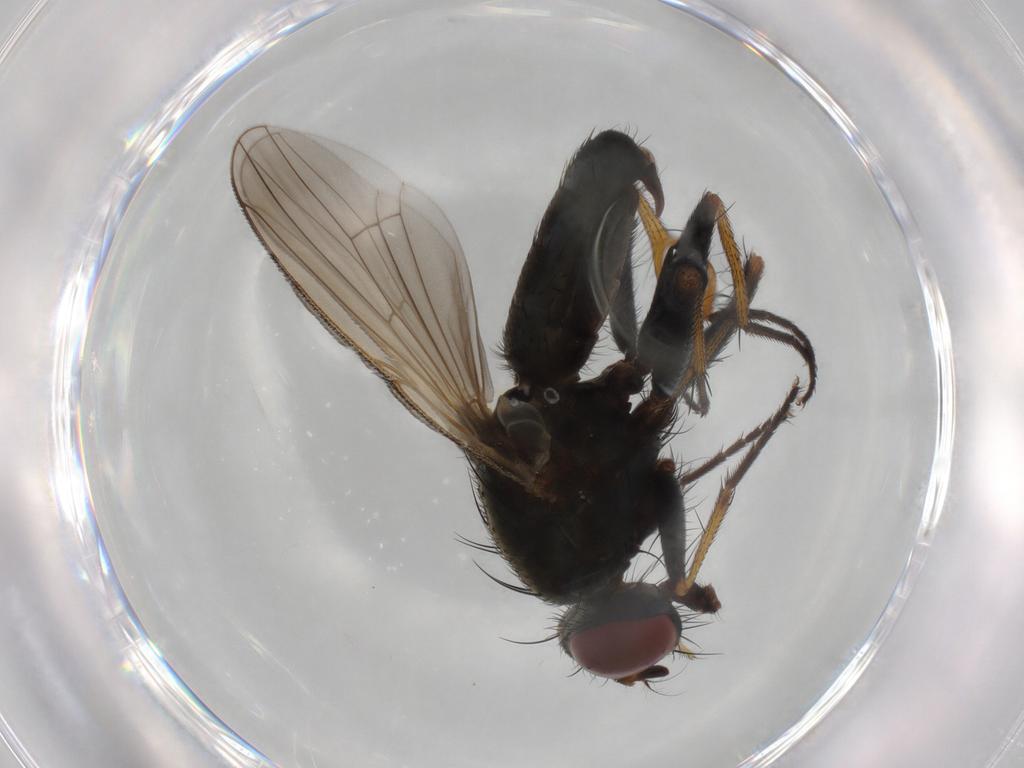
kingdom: Animalia
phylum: Arthropoda
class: Insecta
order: Diptera
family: Muscidae
